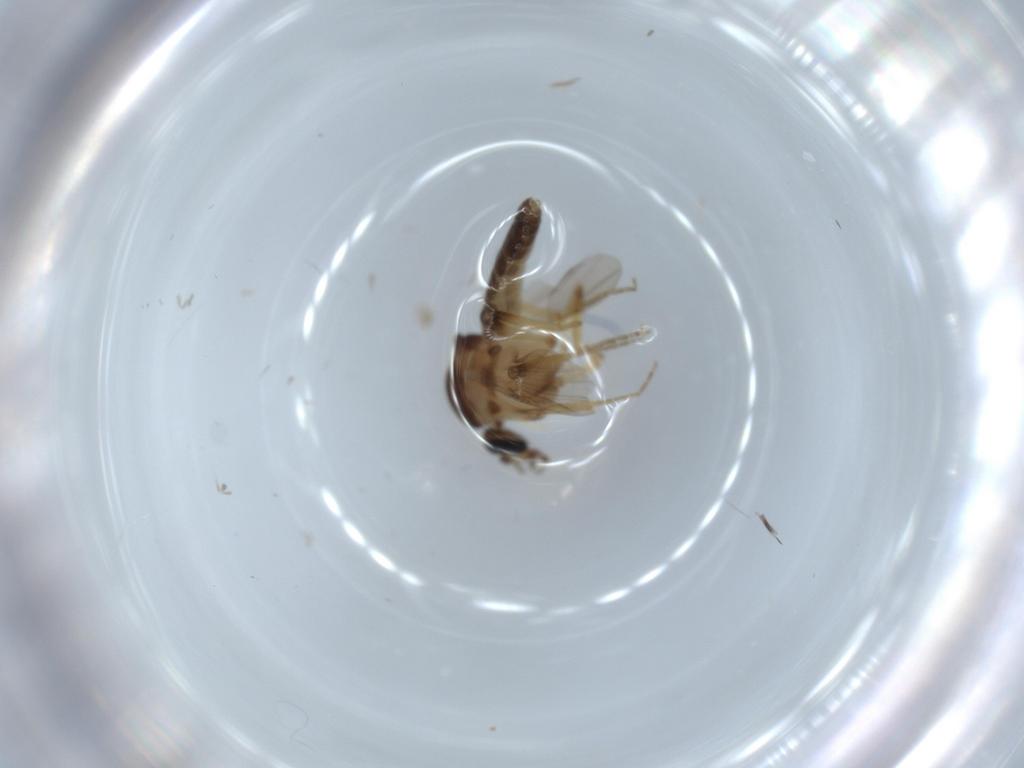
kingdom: Animalia
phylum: Arthropoda
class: Insecta
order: Diptera
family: Ceratopogonidae
